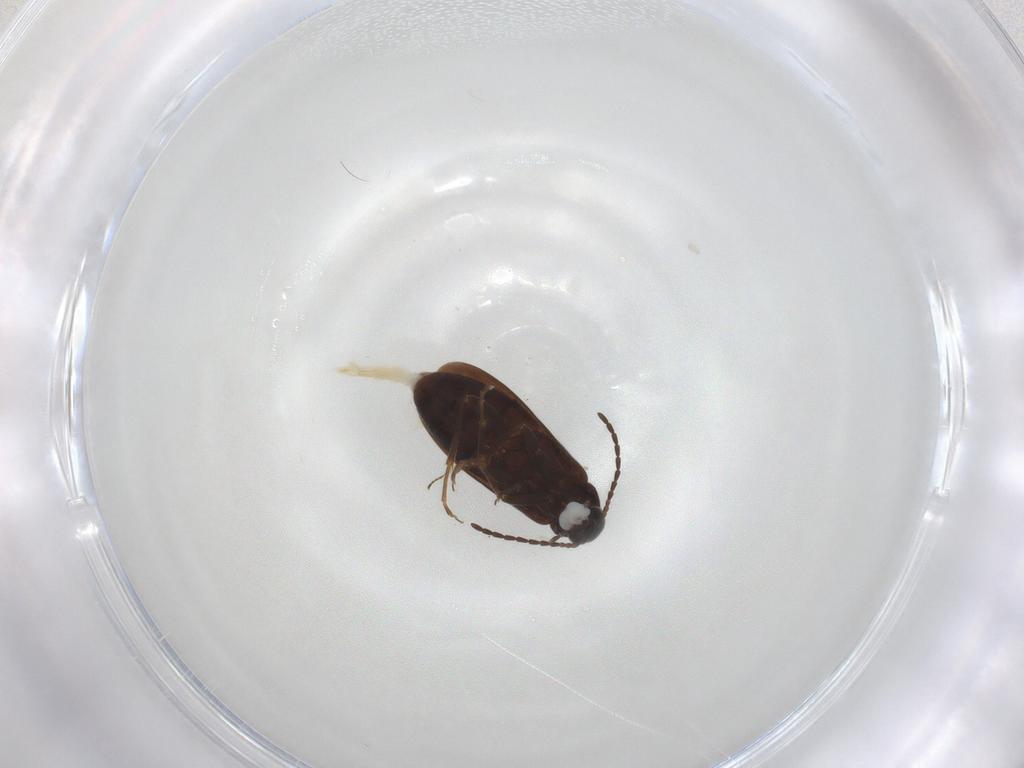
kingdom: Animalia
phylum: Arthropoda
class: Insecta
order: Coleoptera
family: Scraptiidae
